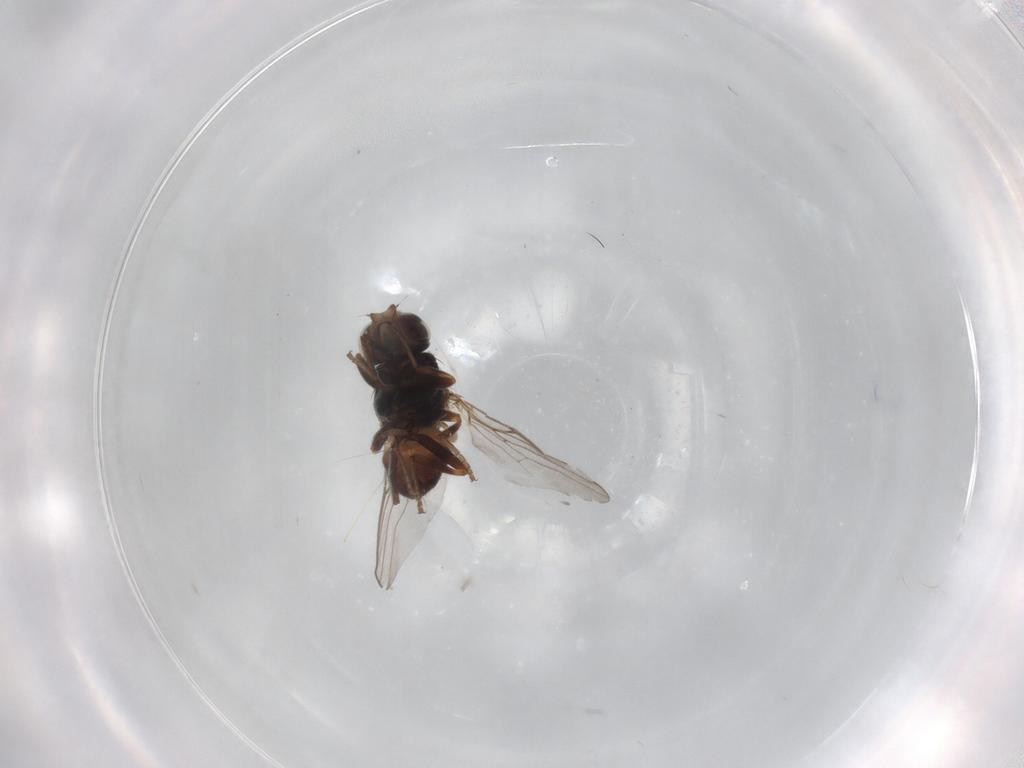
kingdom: Animalia
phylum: Arthropoda
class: Insecta
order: Diptera
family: Chloropidae
